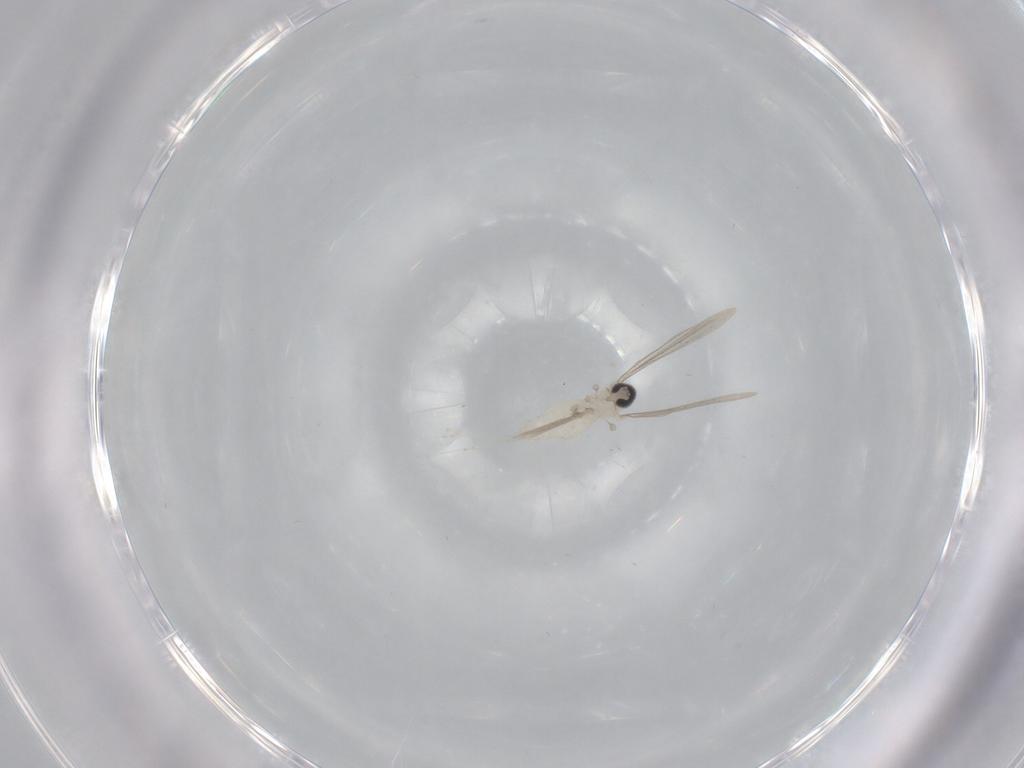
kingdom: Animalia
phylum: Arthropoda
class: Insecta
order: Diptera
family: Cecidomyiidae
